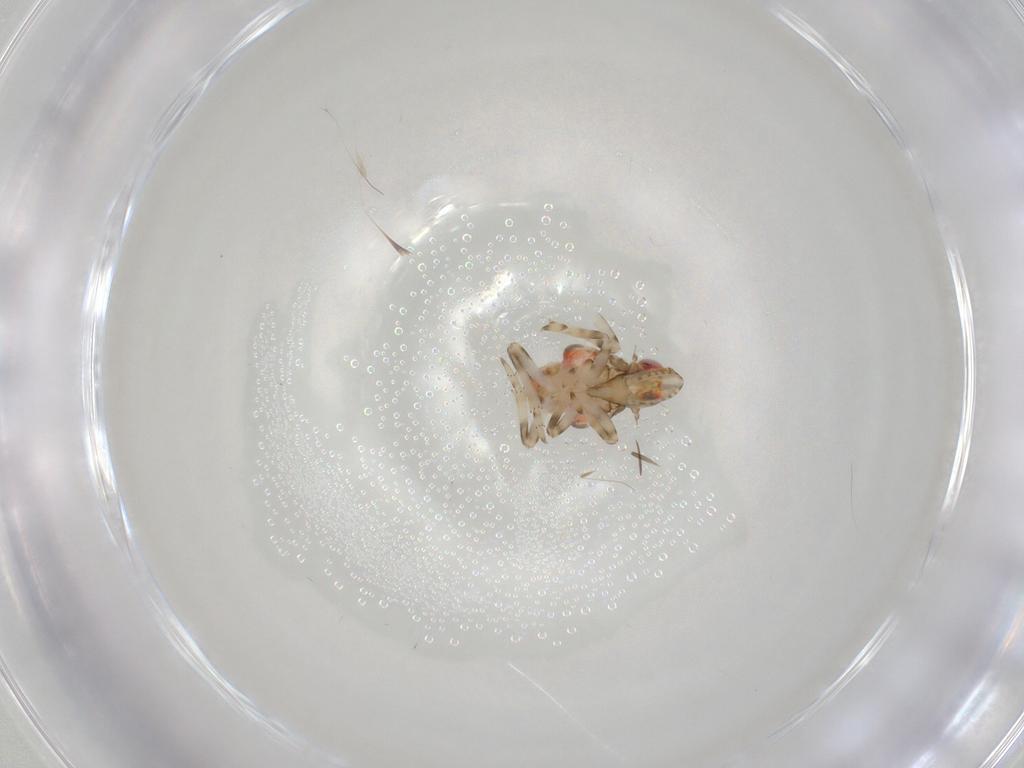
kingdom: Animalia
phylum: Arthropoda
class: Insecta
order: Hemiptera
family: Tropiduchidae
